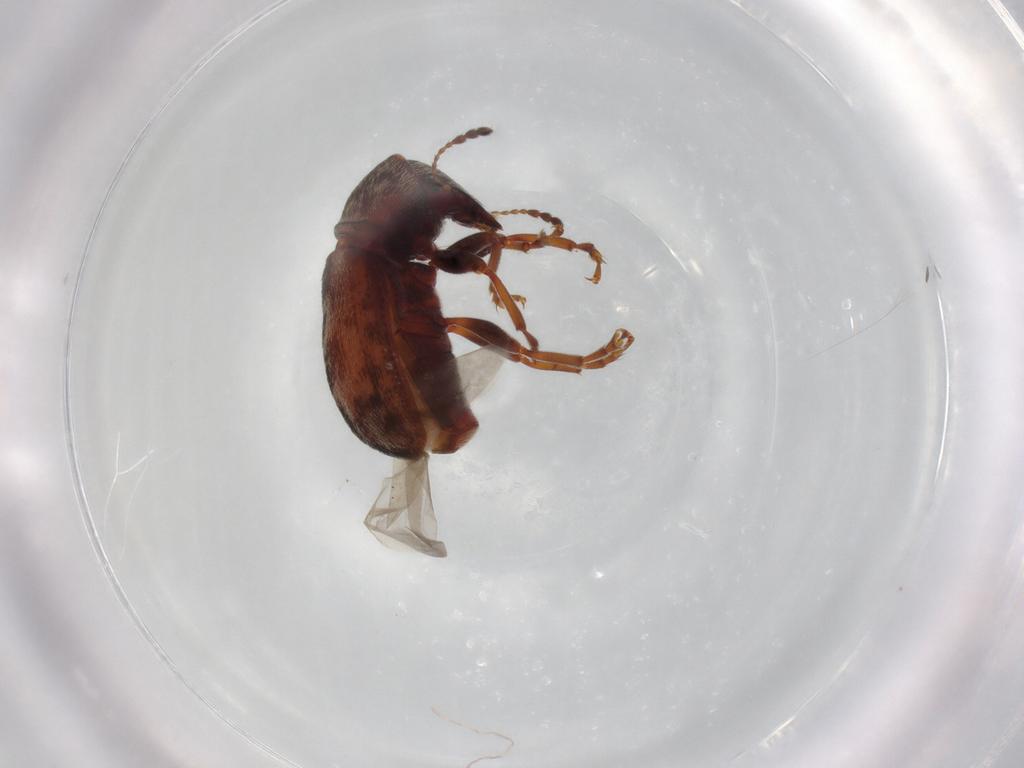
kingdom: Animalia
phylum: Arthropoda
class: Insecta
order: Coleoptera
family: Anthribidae
